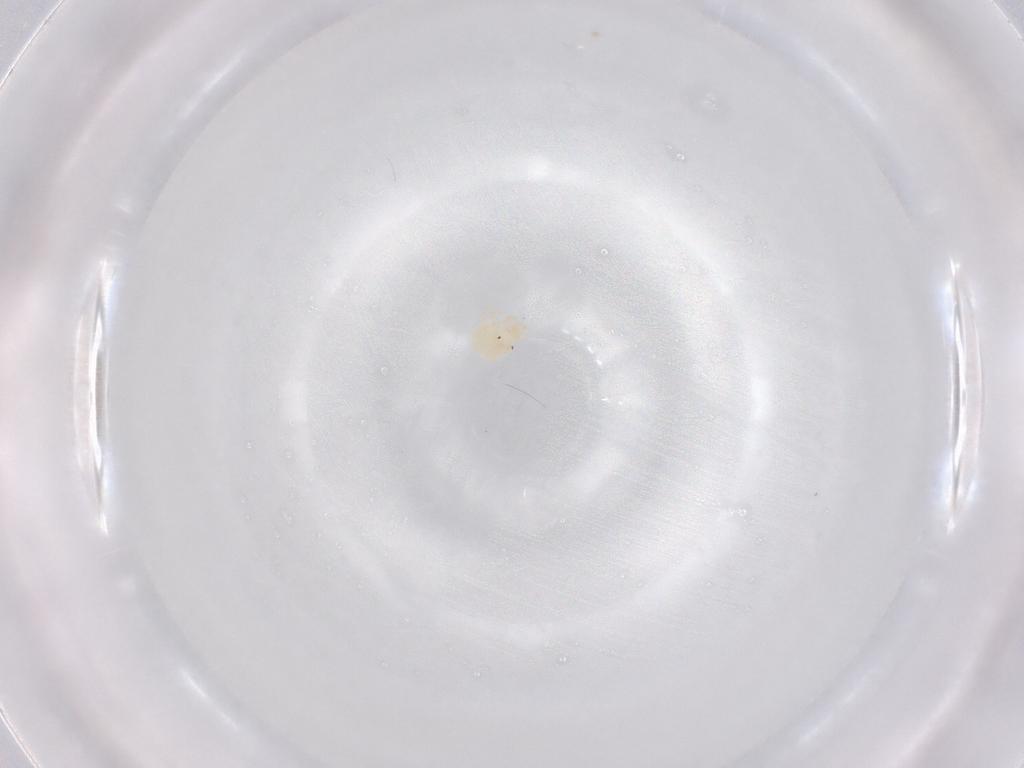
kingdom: Animalia
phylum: Arthropoda
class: Arachnida
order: Trombidiformes
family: Sperchontidae
